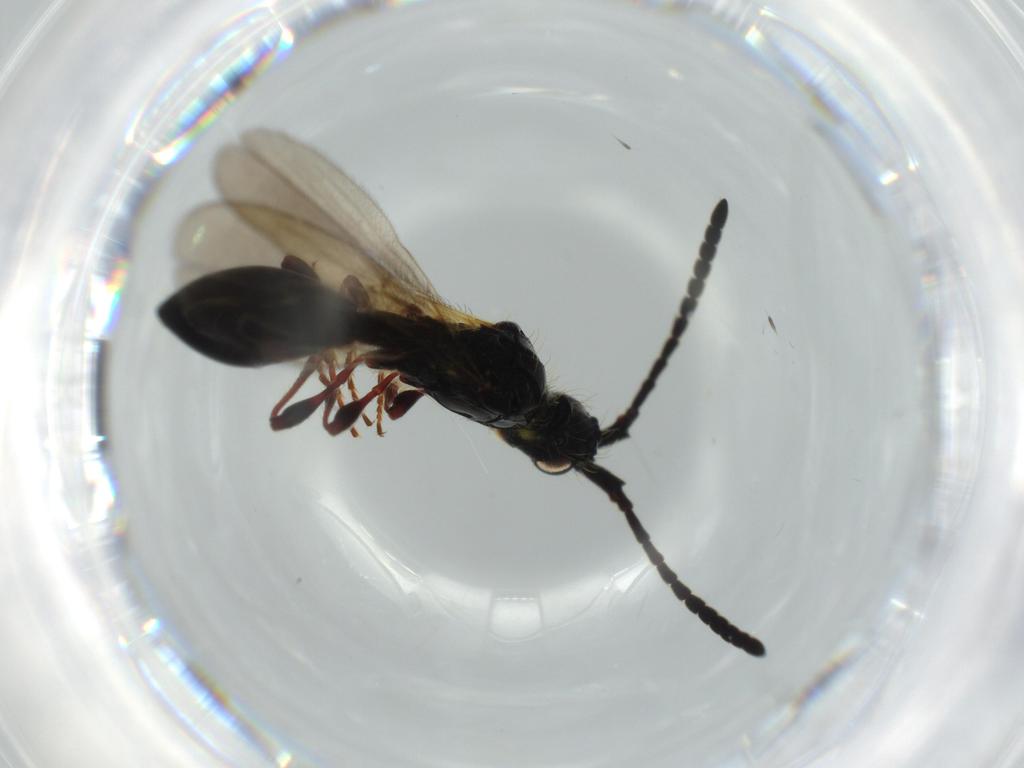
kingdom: Animalia
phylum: Arthropoda
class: Insecta
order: Hymenoptera
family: Diapriidae
